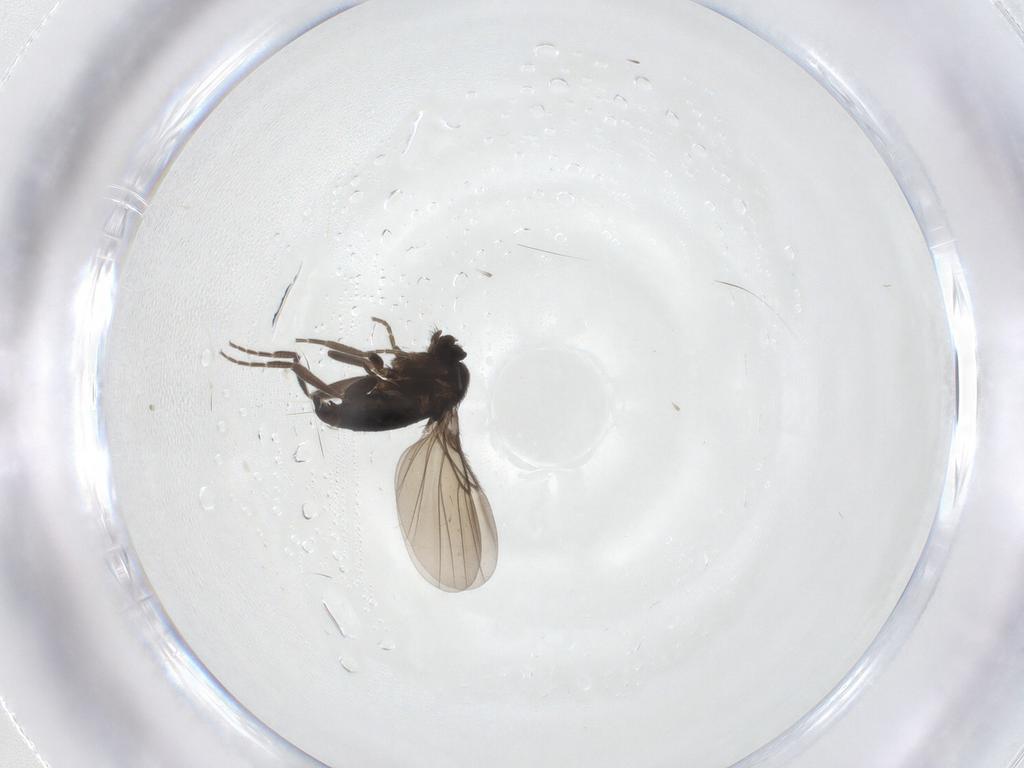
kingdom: Animalia
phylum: Arthropoda
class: Insecta
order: Diptera
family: Phoridae
